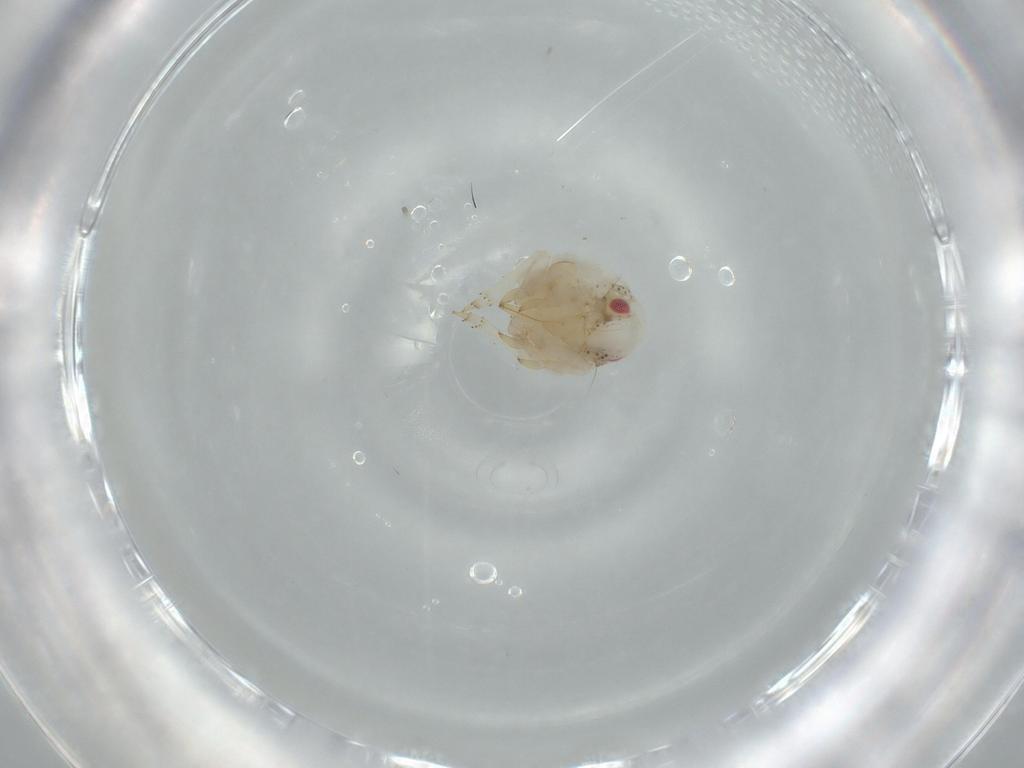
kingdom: Animalia
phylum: Arthropoda
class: Insecta
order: Hemiptera
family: Acanaloniidae
